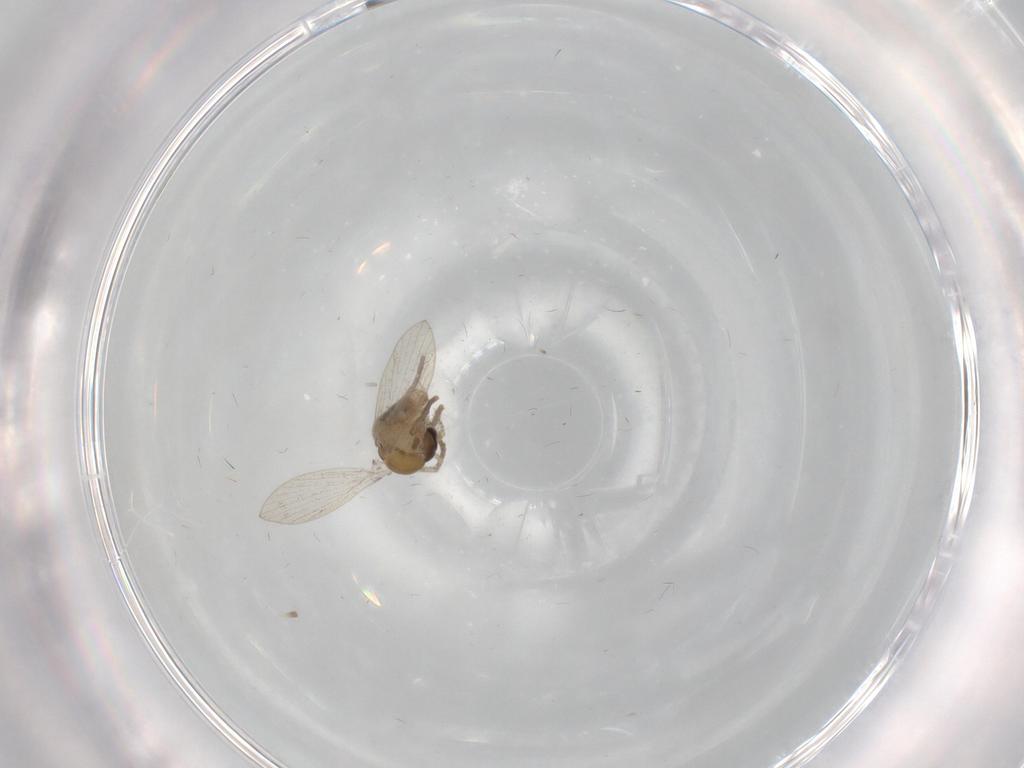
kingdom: Animalia
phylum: Arthropoda
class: Insecta
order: Diptera
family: Psychodidae
